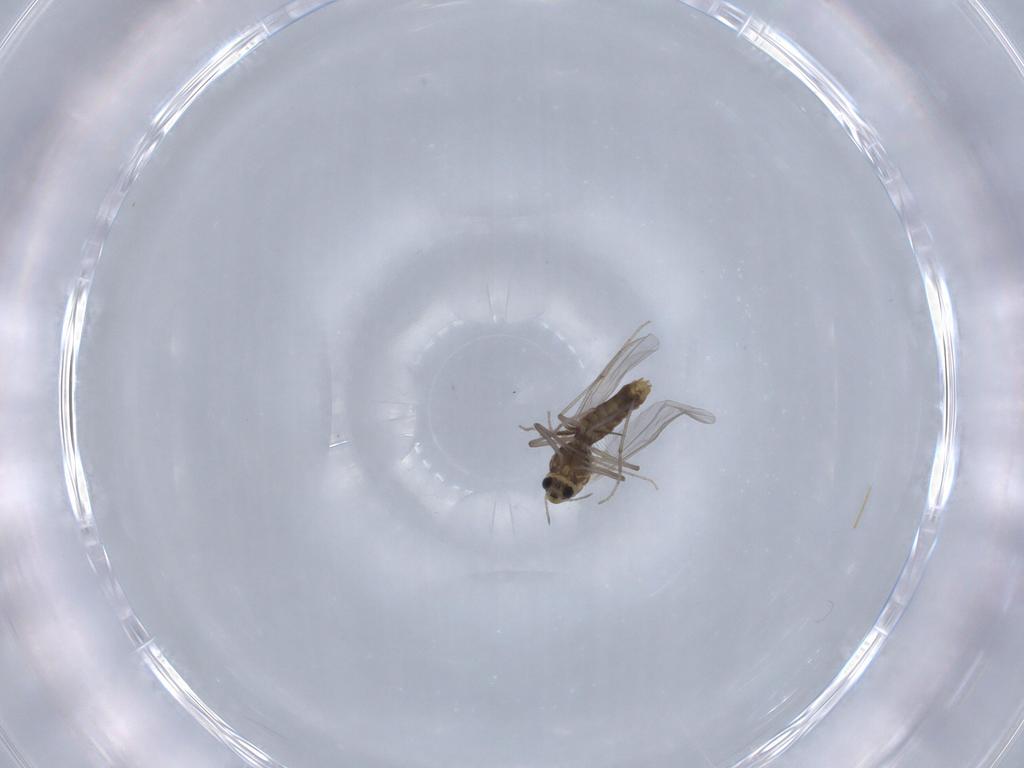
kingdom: Animalia
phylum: Arthropoda
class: Insecta
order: Diptera
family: Chironomidae
